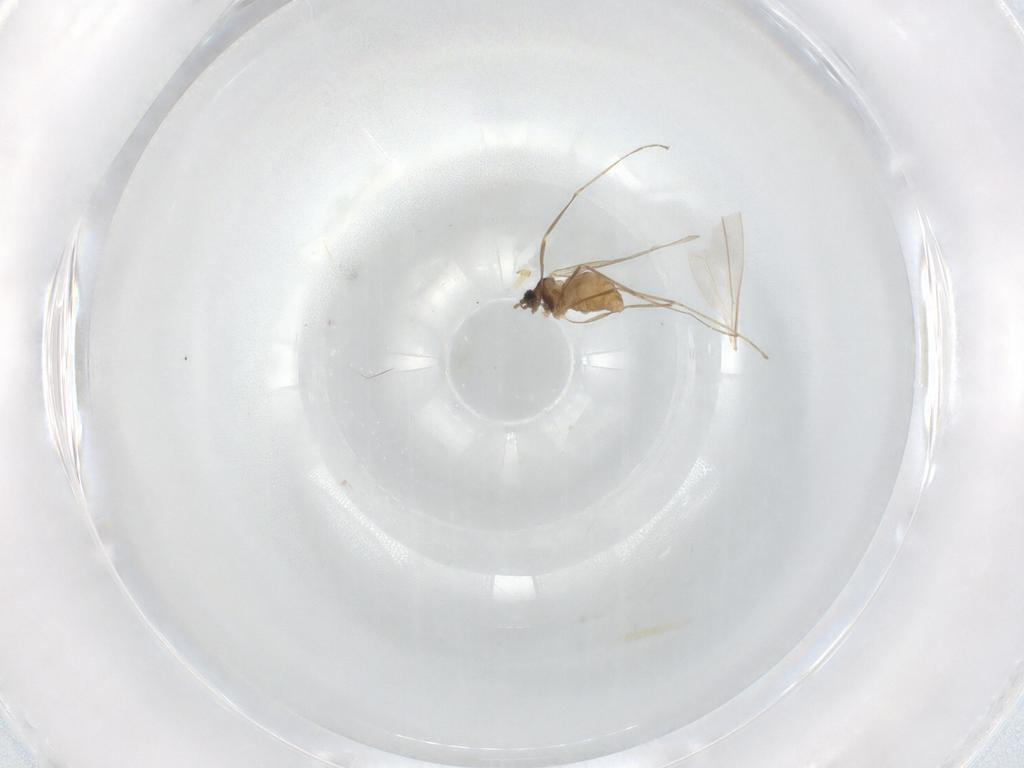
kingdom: Animalia
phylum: Arthropoda
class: Insecta
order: Diptera
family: Cecidomyiidae
